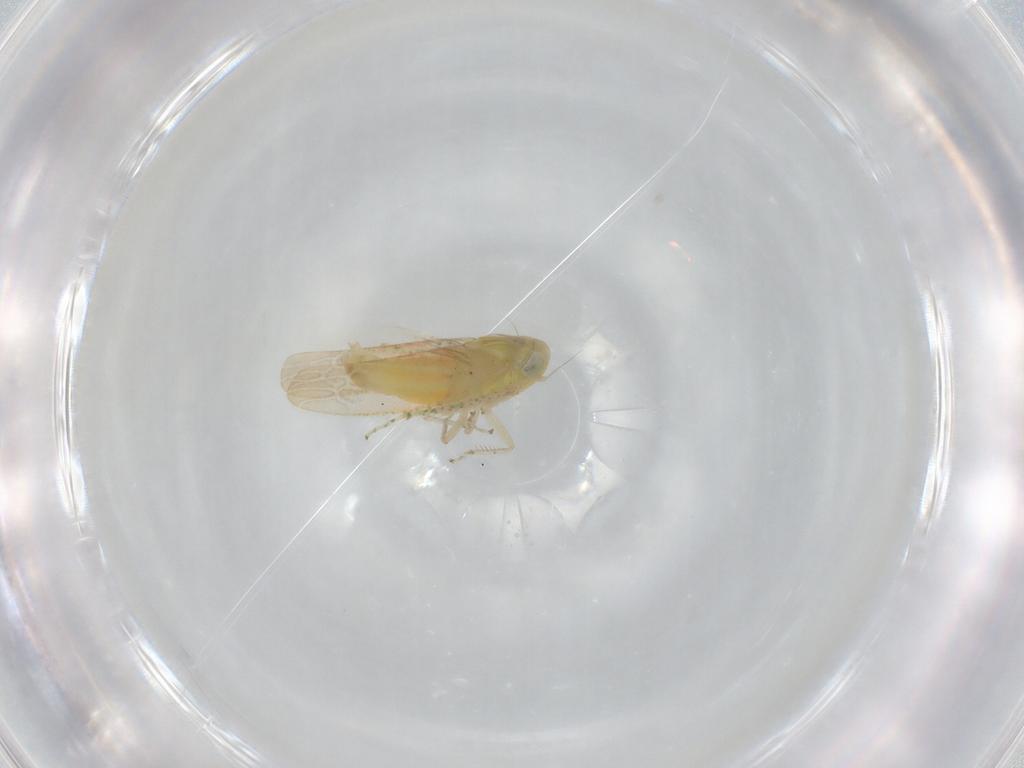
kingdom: Animalia
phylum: Arthropoda
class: Insecta
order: Hemiptera
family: Cicadellidae
